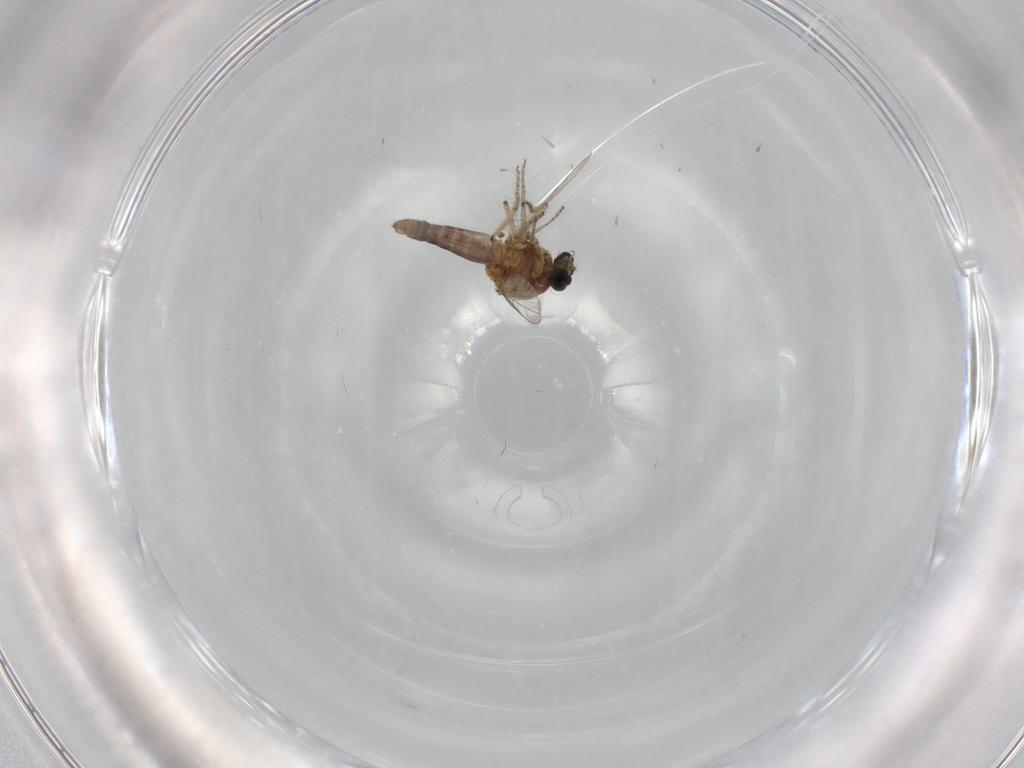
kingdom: Animalia
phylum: Arthropoda
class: Insecta
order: Diptera
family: Ceratopogonidae
